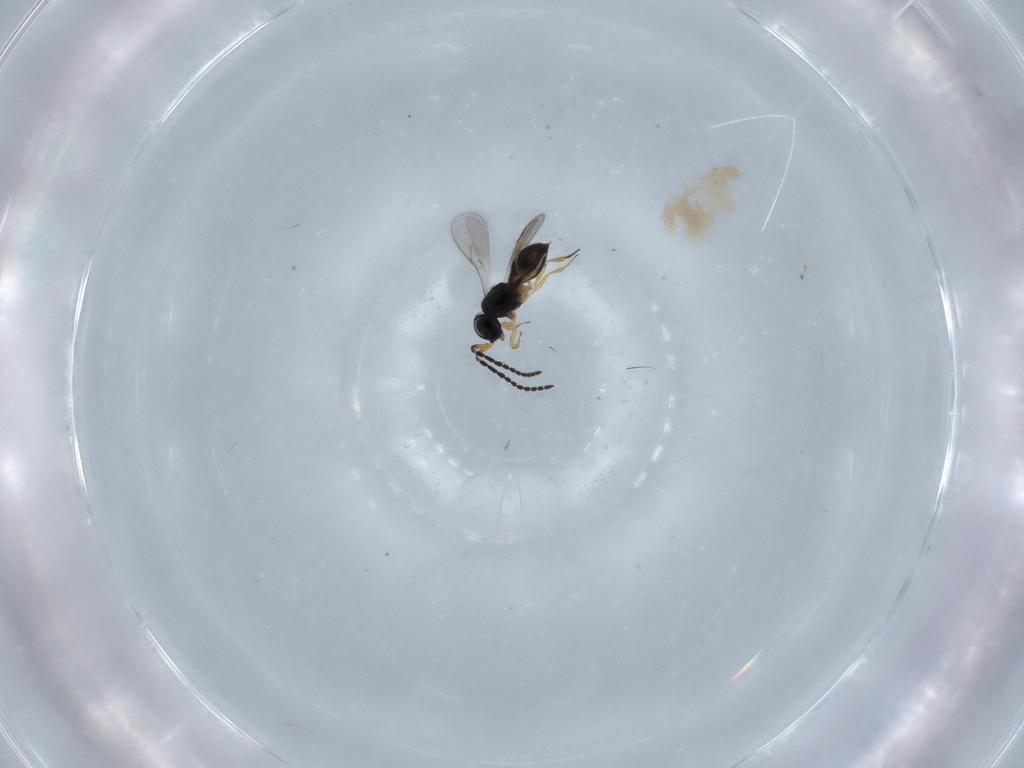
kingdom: Animalia
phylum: Arthropoda
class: Insecta
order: Hymenoptera
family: Scelionidae
